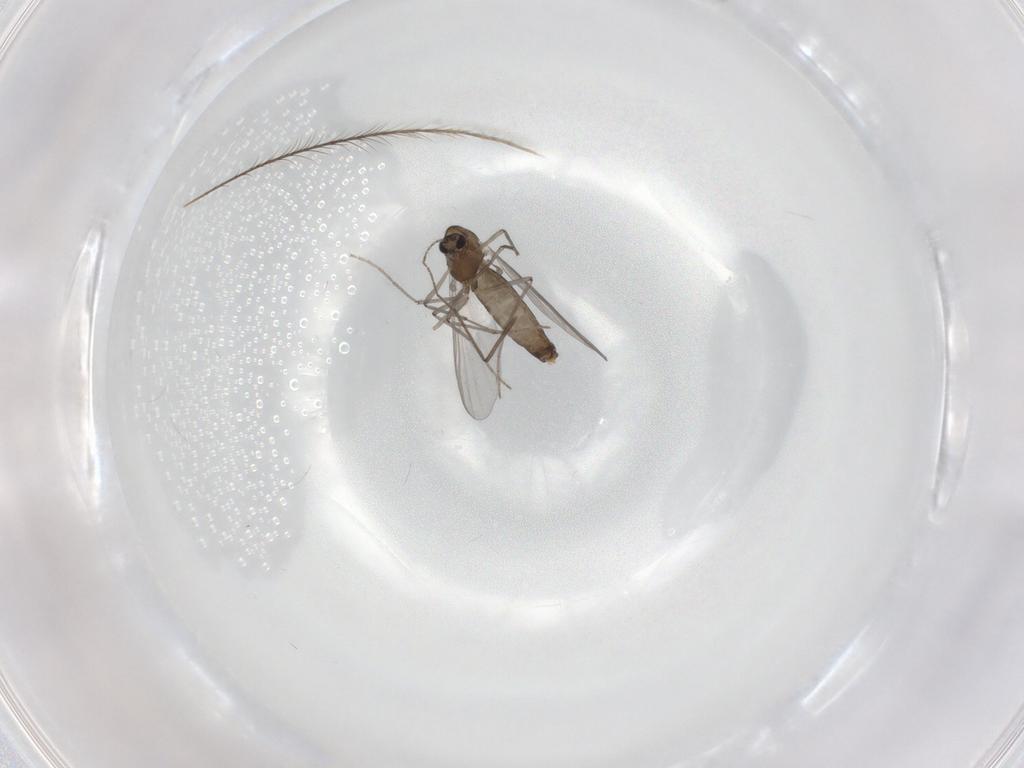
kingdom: Animalia
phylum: Arthropoda
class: Insecta
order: Diptera
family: Chironomidae
